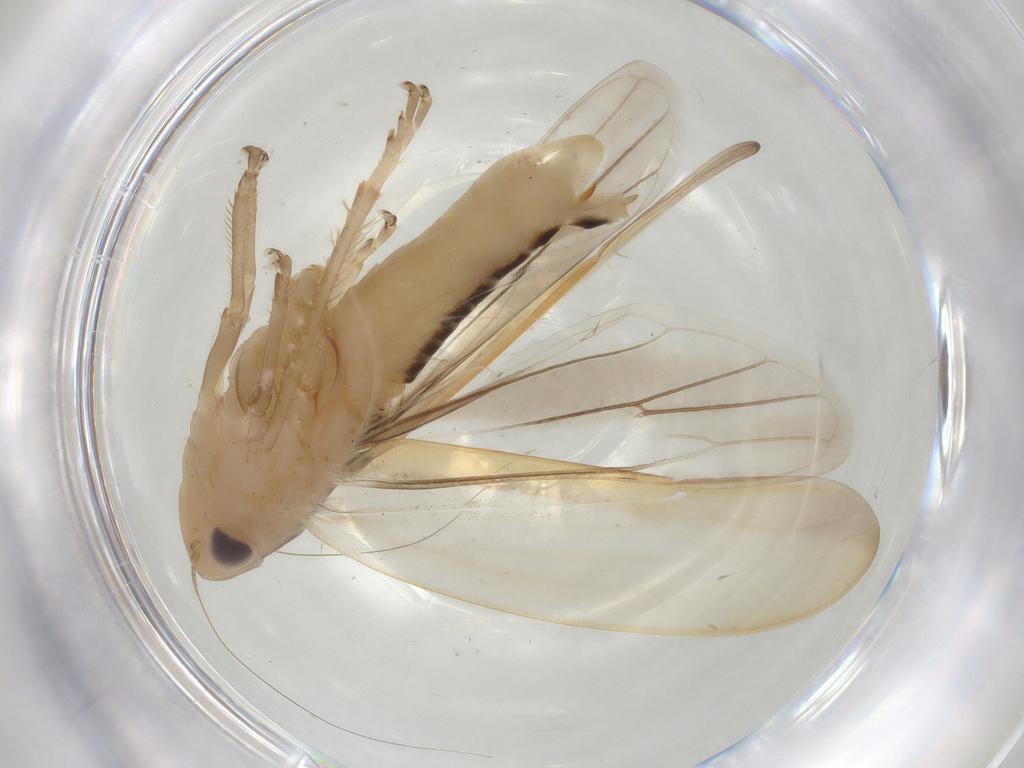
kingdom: Animalia
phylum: Arthropoda
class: Insecta
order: Hemiptera
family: Cicadellidae
